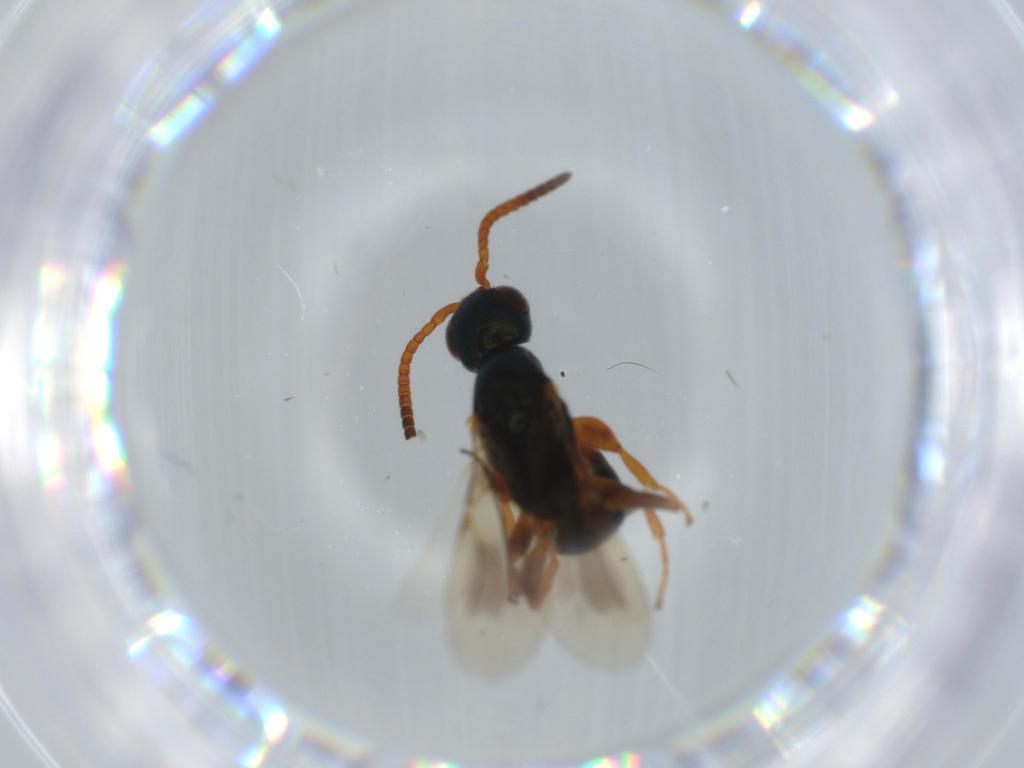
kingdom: Animalia
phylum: Arthropoda
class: Insecta
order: Hymenoptera
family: Bethylidae
